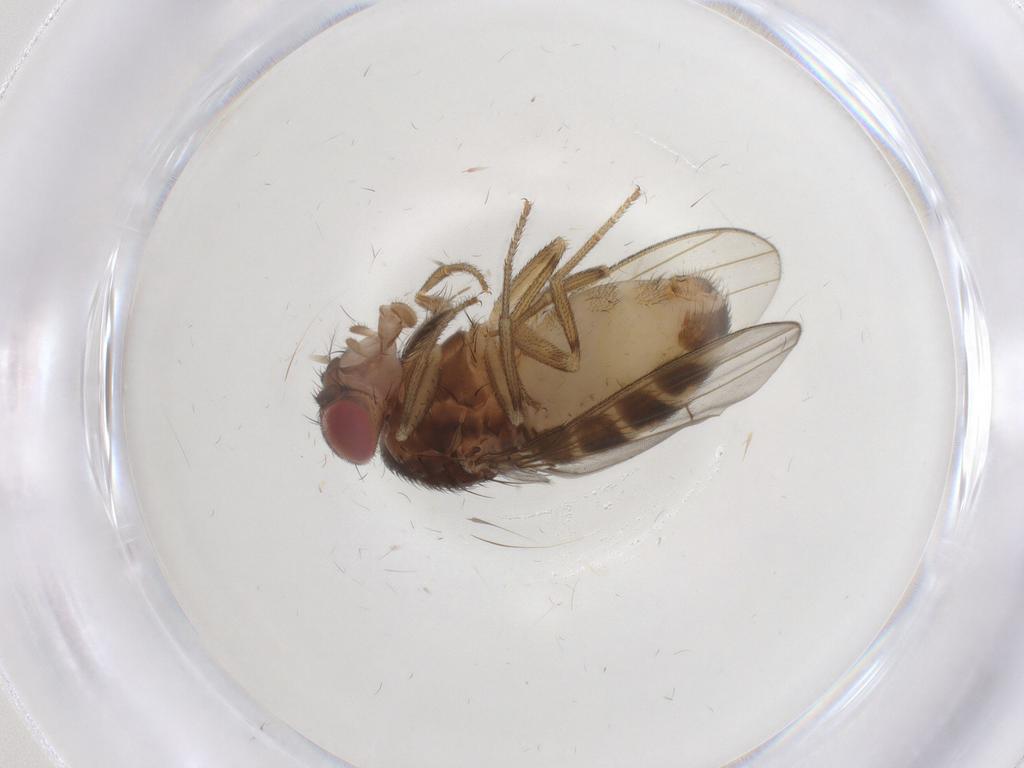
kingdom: Animalia
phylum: Arthropoda
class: Insecta
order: Diptera
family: Drosophilidae
